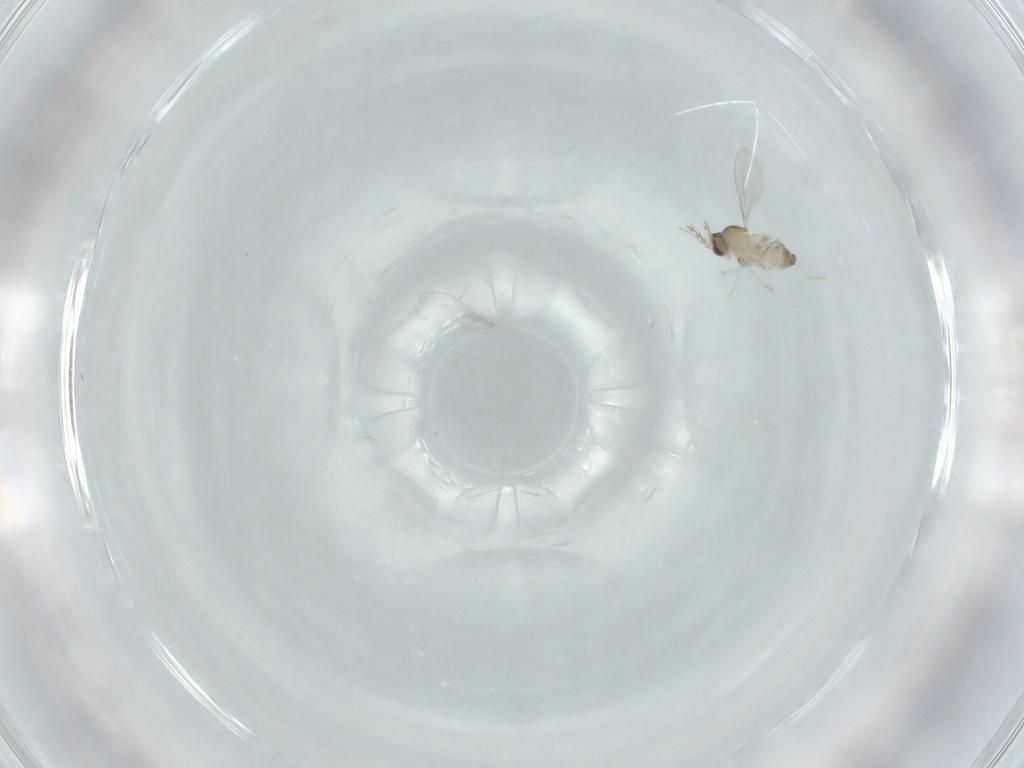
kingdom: Animalia
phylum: Arthropoda
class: Insecta
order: Diptera
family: Cecidomyiidae
